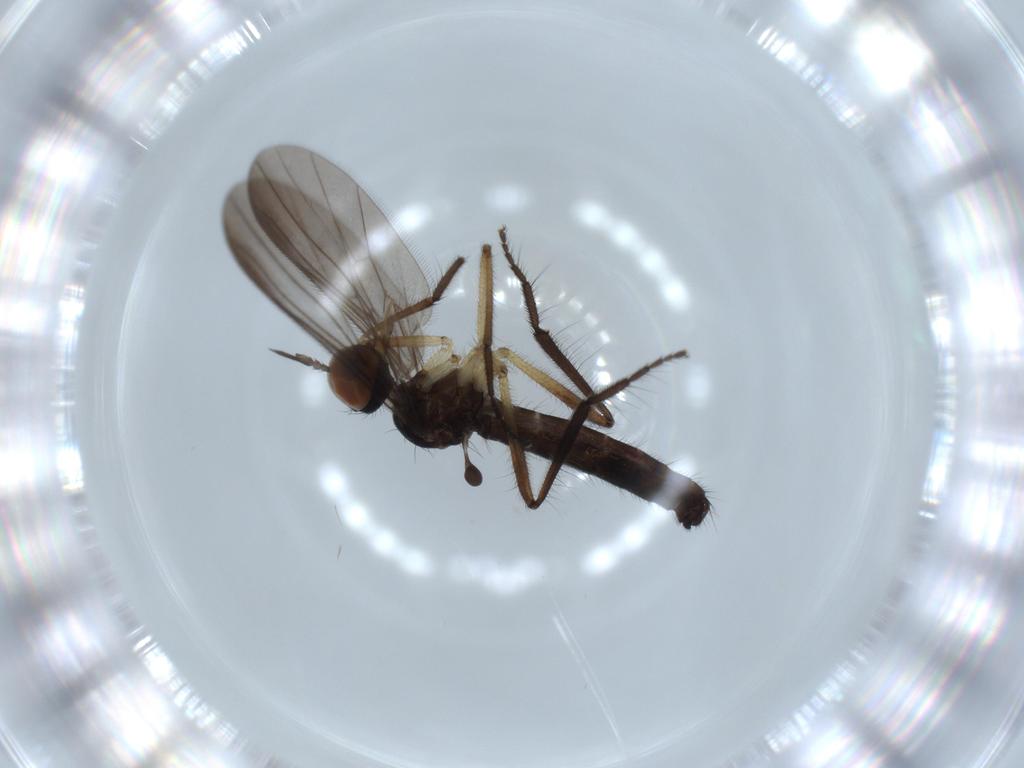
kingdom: Animalia
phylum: Arthropoda
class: Insecta
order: Diptera
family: Empididae
